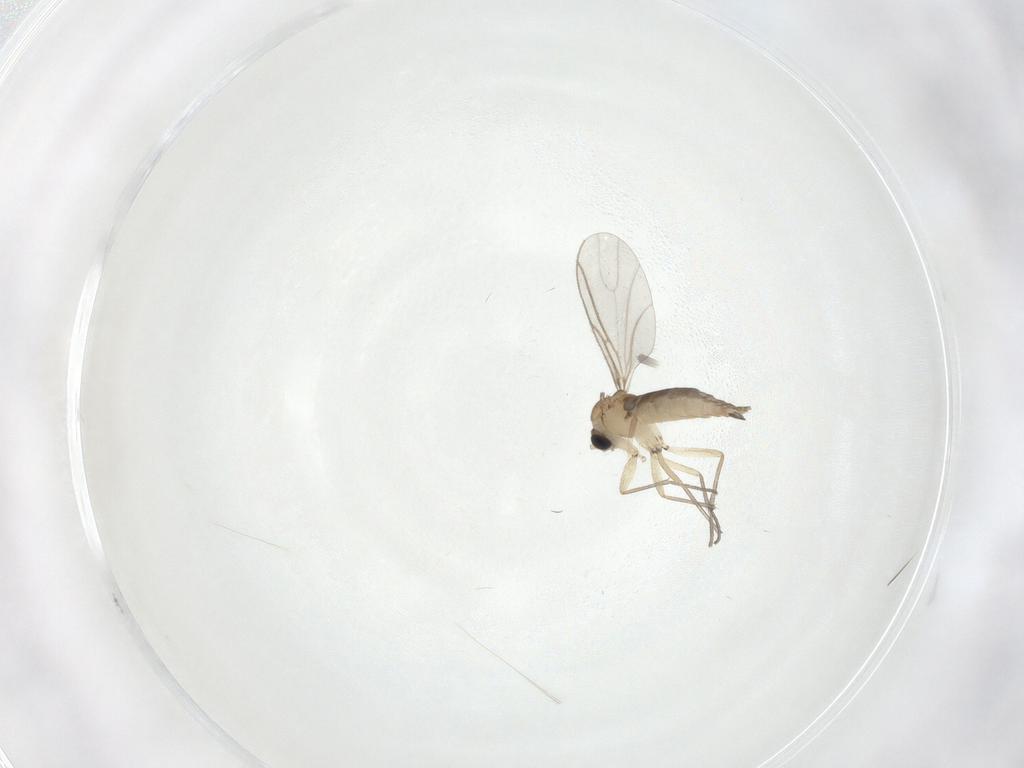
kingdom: Animalia
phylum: Arthropoda
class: Insecta
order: Diptera
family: Sciaridae
